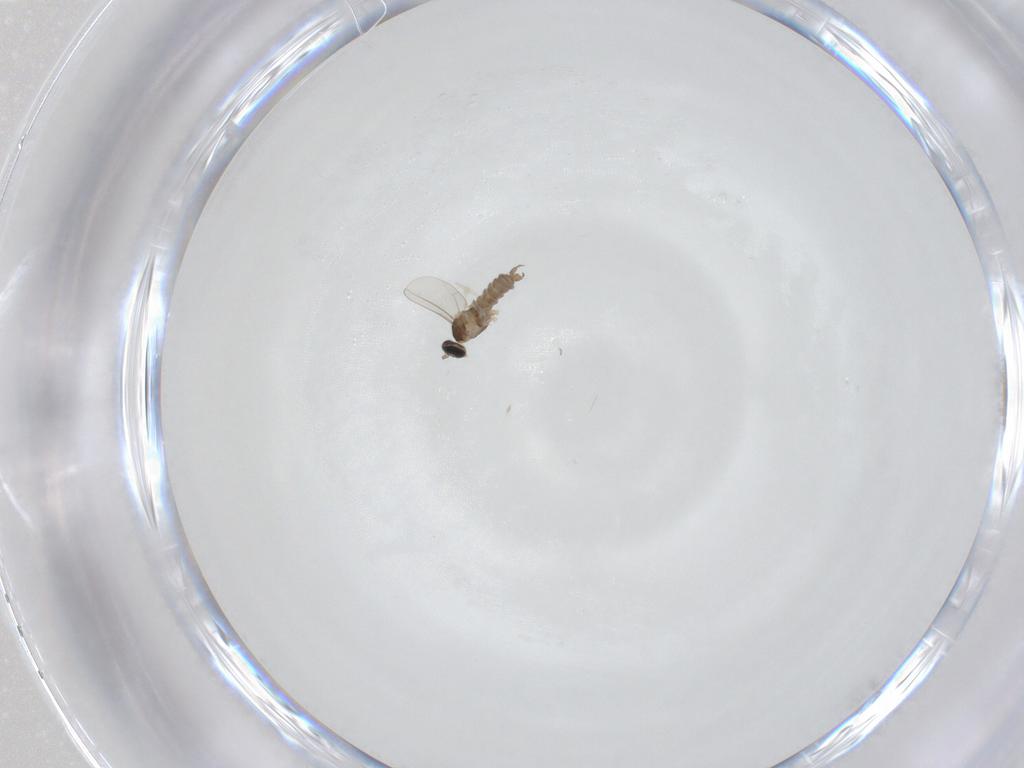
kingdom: Animalia
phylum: Arthropoda
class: Insecta
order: Diptera
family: Cecidomyiidae
